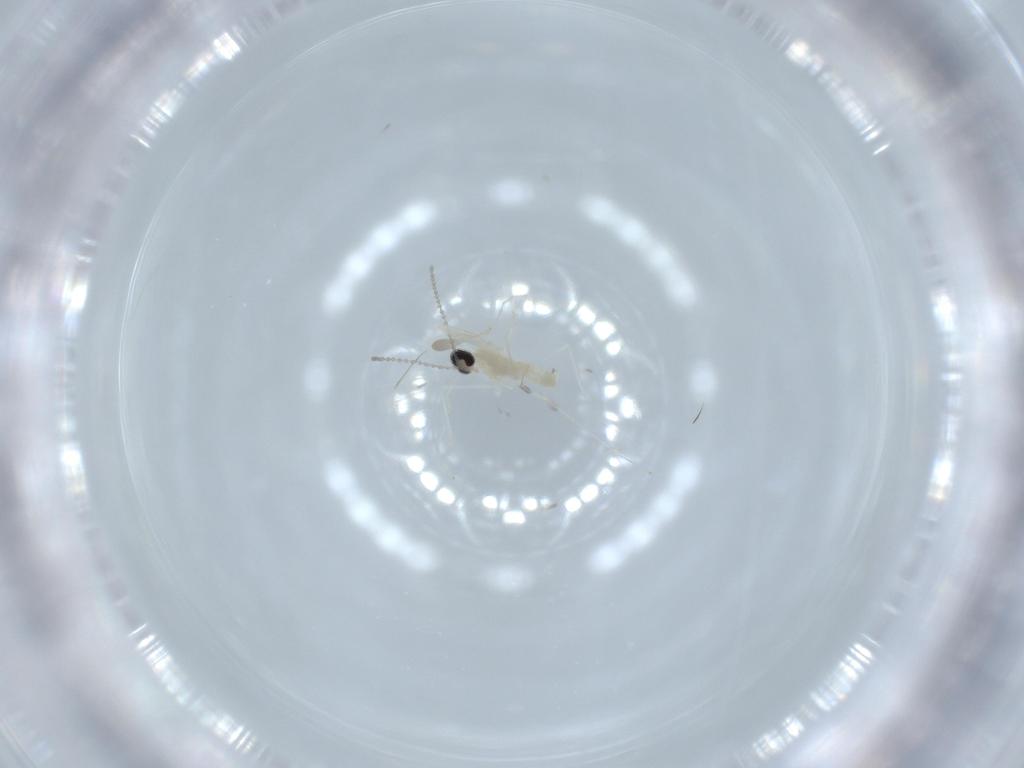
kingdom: Animalia
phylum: Arthropoda
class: Insecta
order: Diptera
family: Cecidomyiidae
